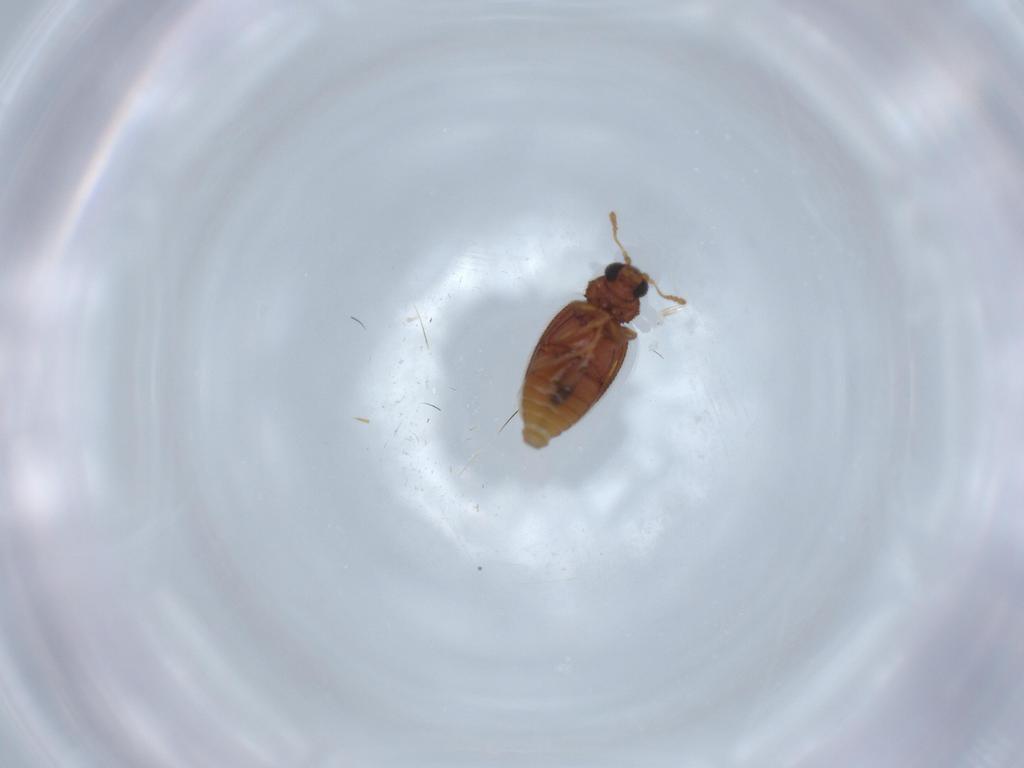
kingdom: Animalia
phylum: Arthropoda
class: Insecta
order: Coleoptera
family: Latridiidae
